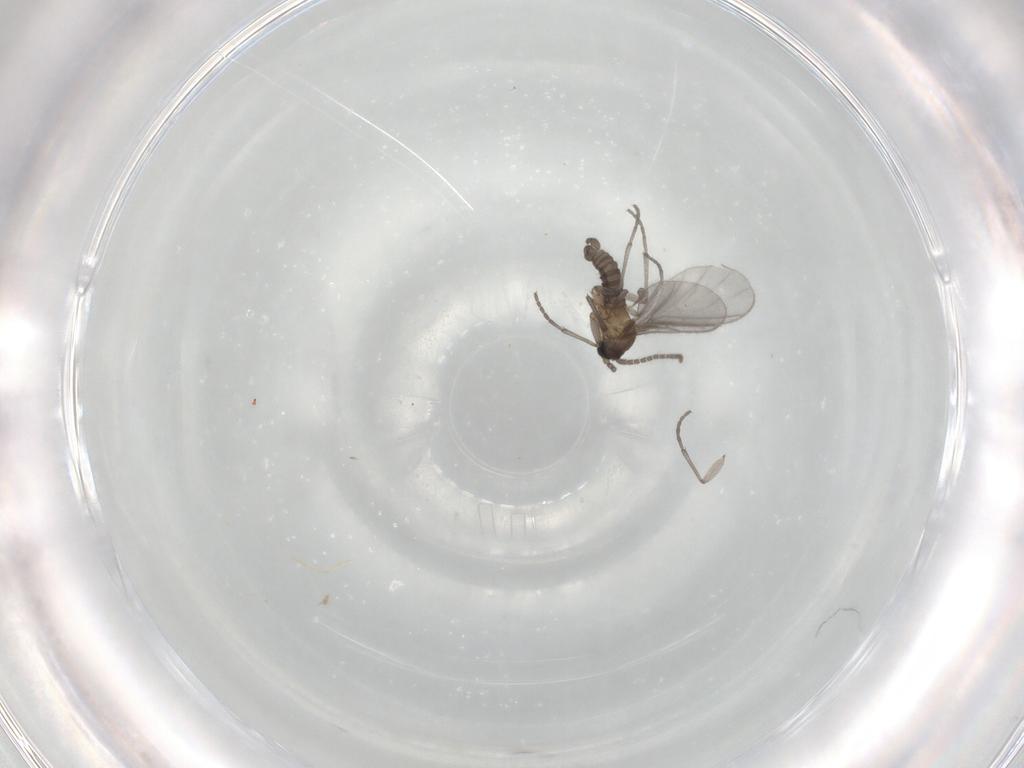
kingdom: Animalia
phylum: Arthropoda
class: Insecta
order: Diptera
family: Sciaridae
